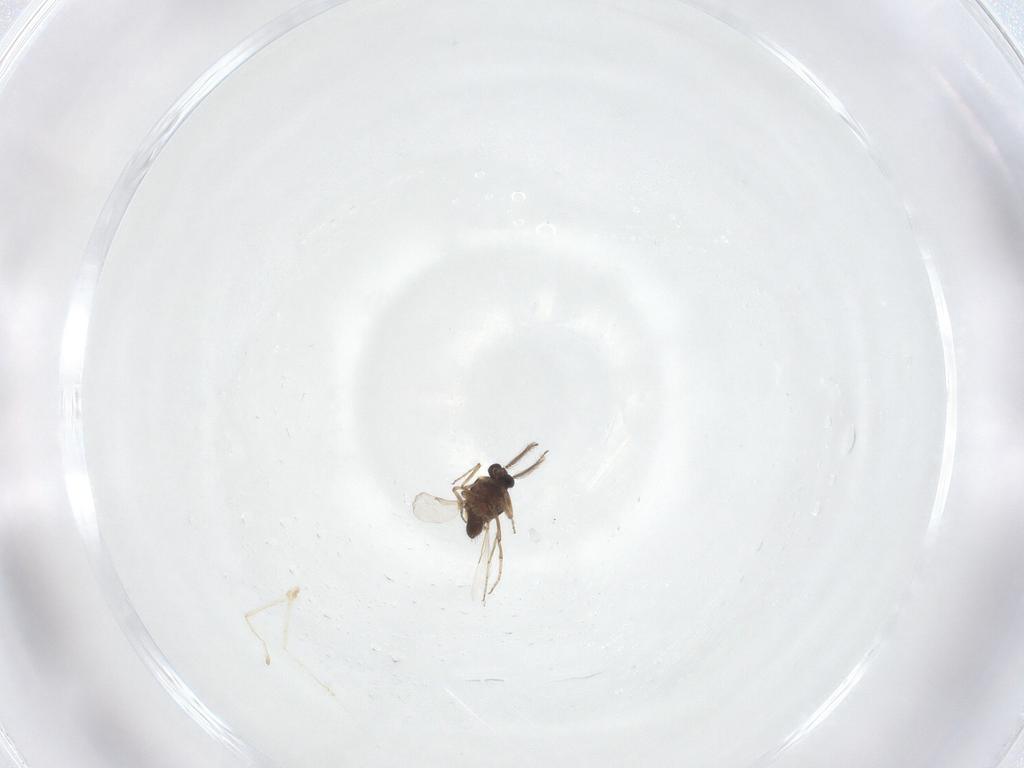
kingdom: Animalia
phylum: Arthropoda
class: Insecta
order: Diptera
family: Ceratopogonidae
